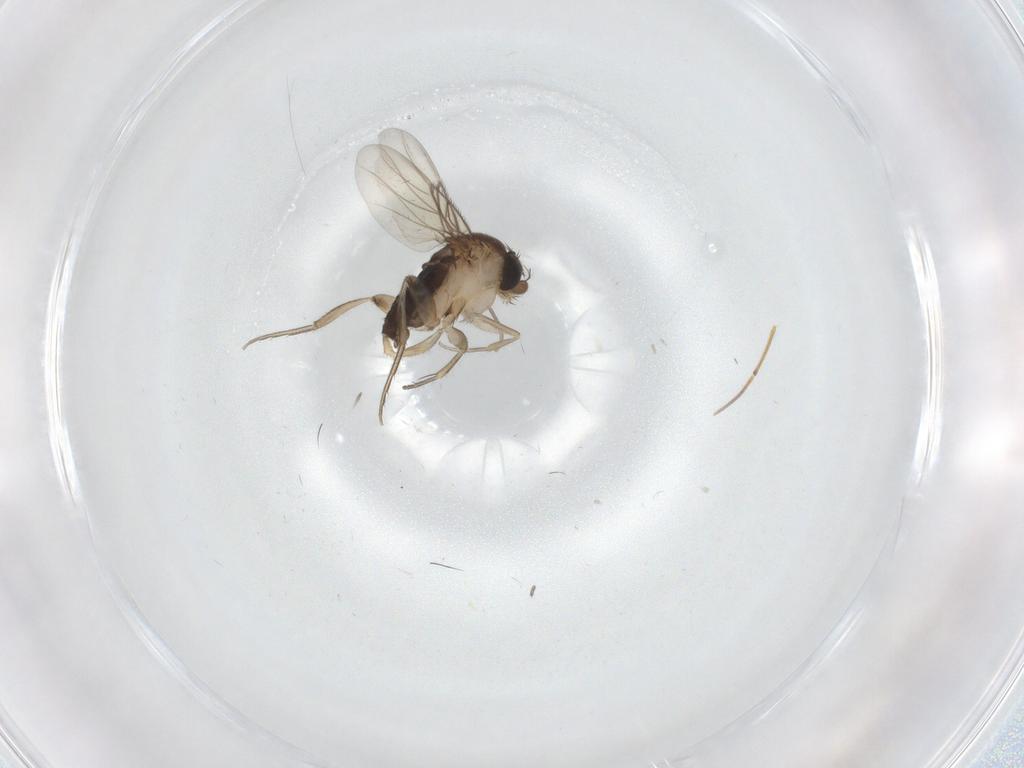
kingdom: Animalia
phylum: Arthropoda
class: Insecta
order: Diptera
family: Phoridae
